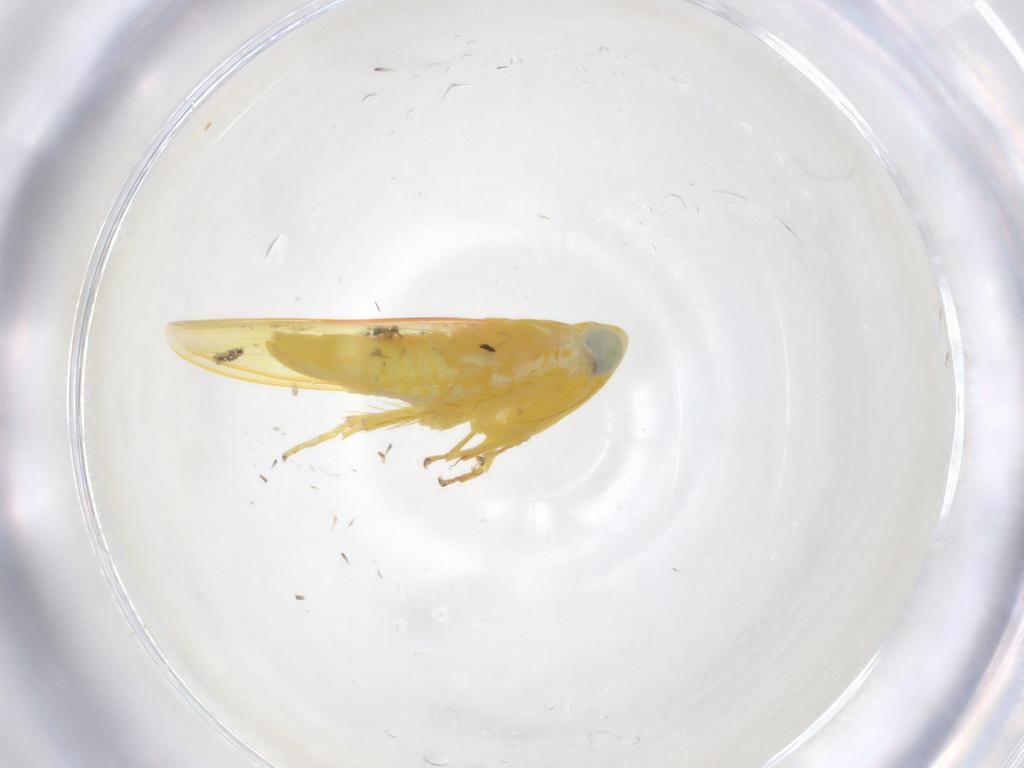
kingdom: Animalia
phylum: Arthropoda
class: Insecta
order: Hemiptera
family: Cicadellidae
